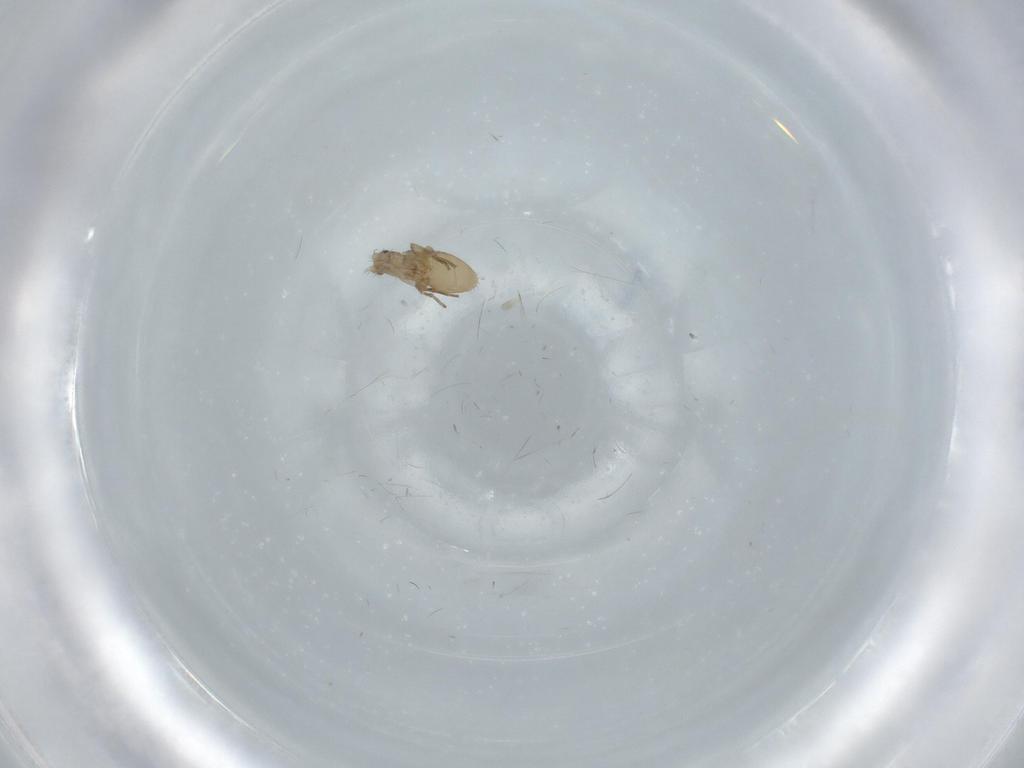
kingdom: Animalia
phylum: Arthropoda
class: Insecta
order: Diptera
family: Phoridae
